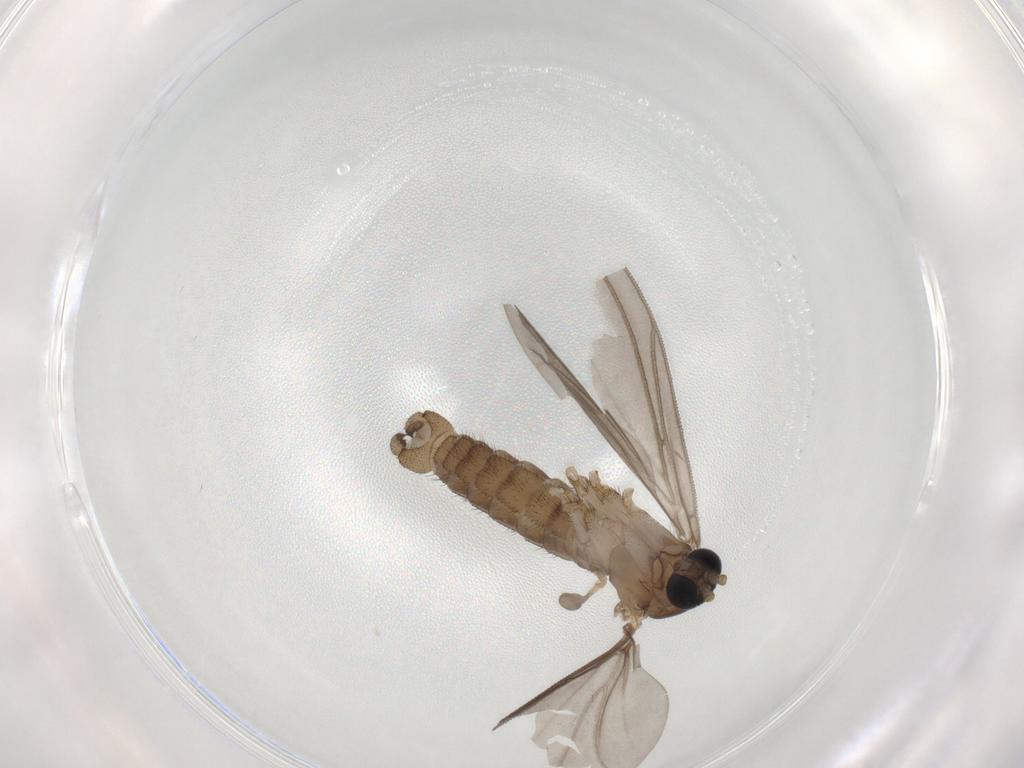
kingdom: Animalia
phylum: Arthropoda
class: Insecta
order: Diptera
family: Sciaridae
